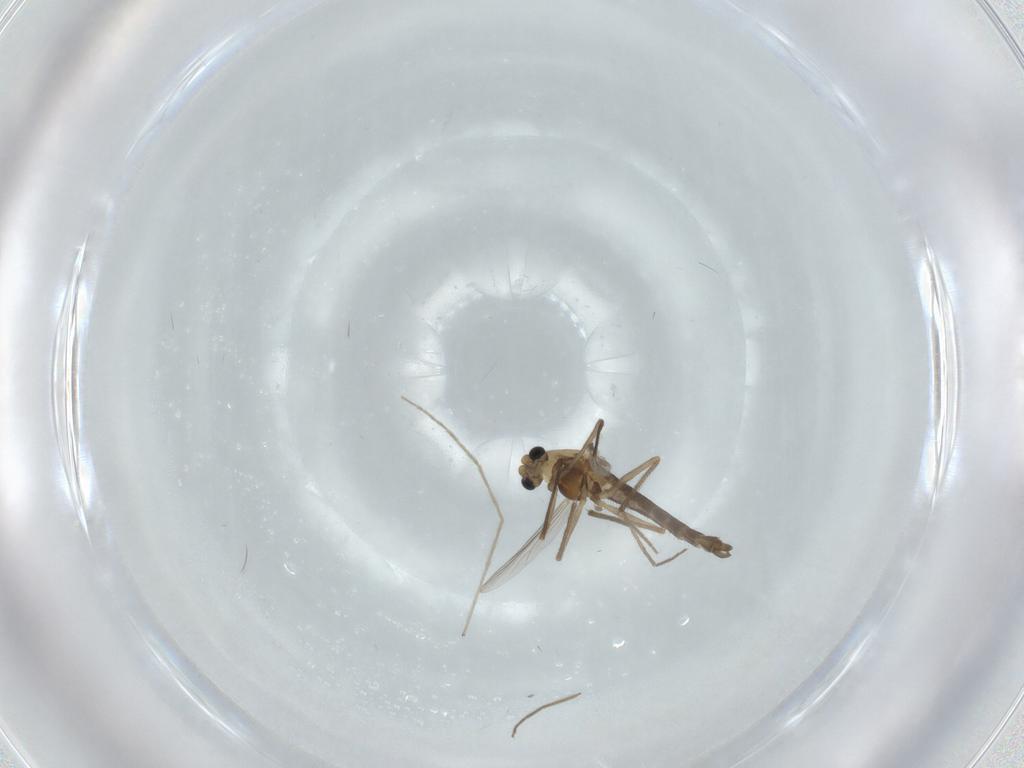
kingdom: Animalia
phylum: Arthropoda
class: Insecta
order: Diptera
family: Chironomidae
